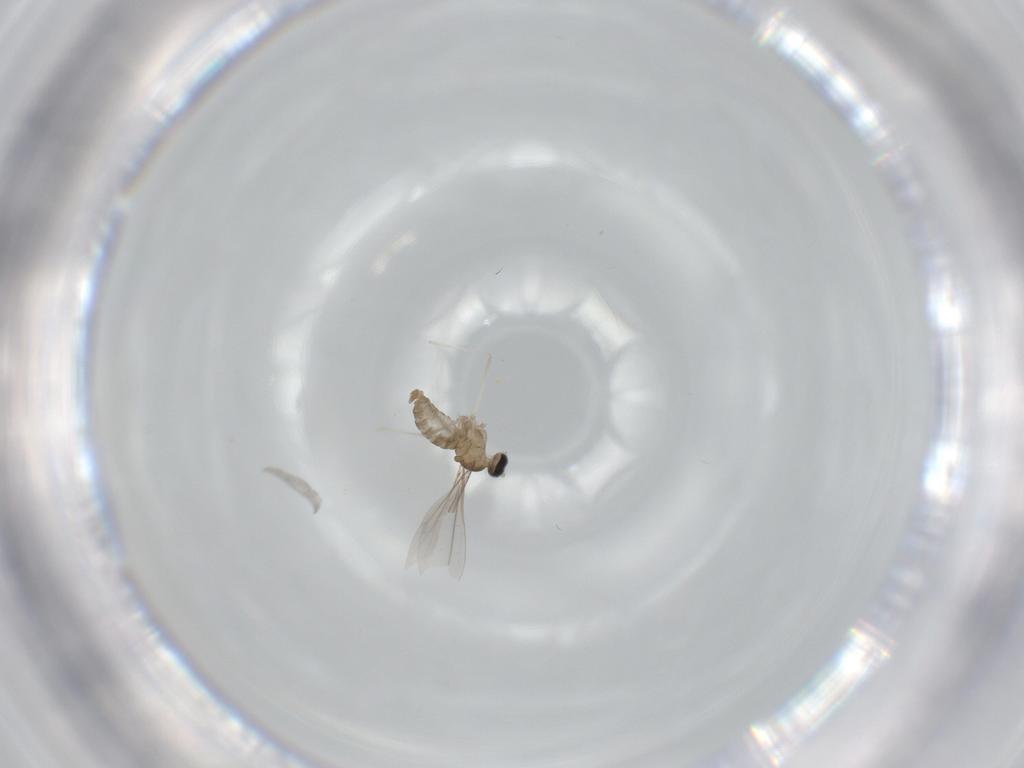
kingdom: Animalia
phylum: Arthropoda
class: Insecta
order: Diptera
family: Cecidomyiidae
